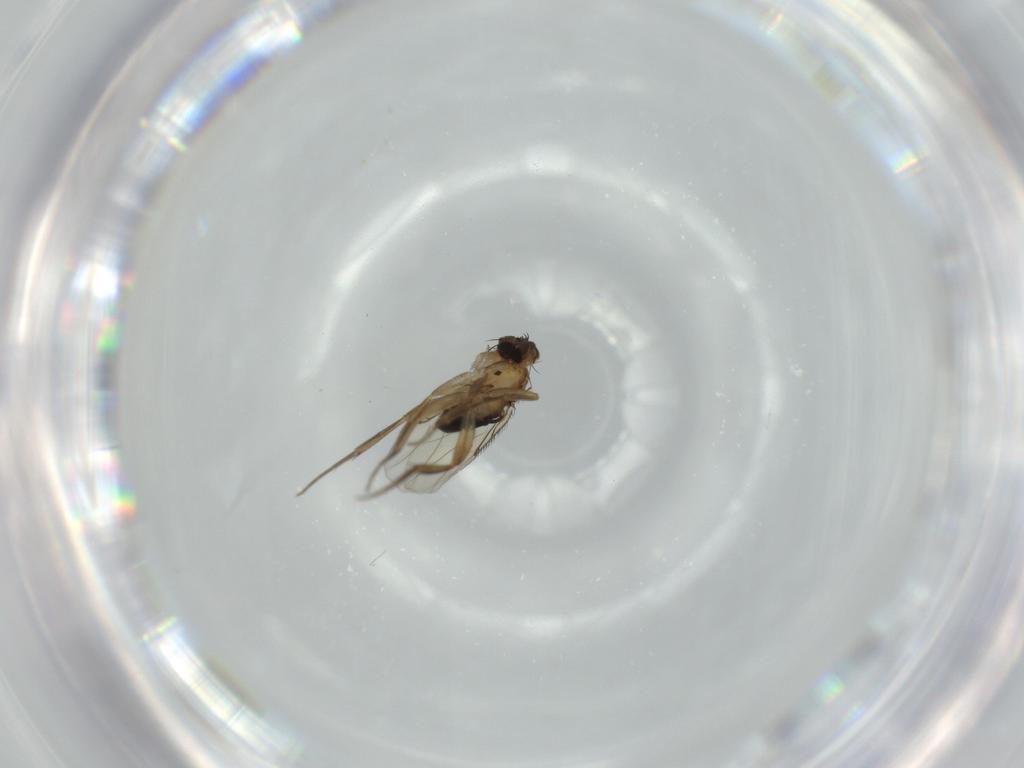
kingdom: Animalia
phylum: Arthropoda
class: Insecta
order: Diptera
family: Phoridae
